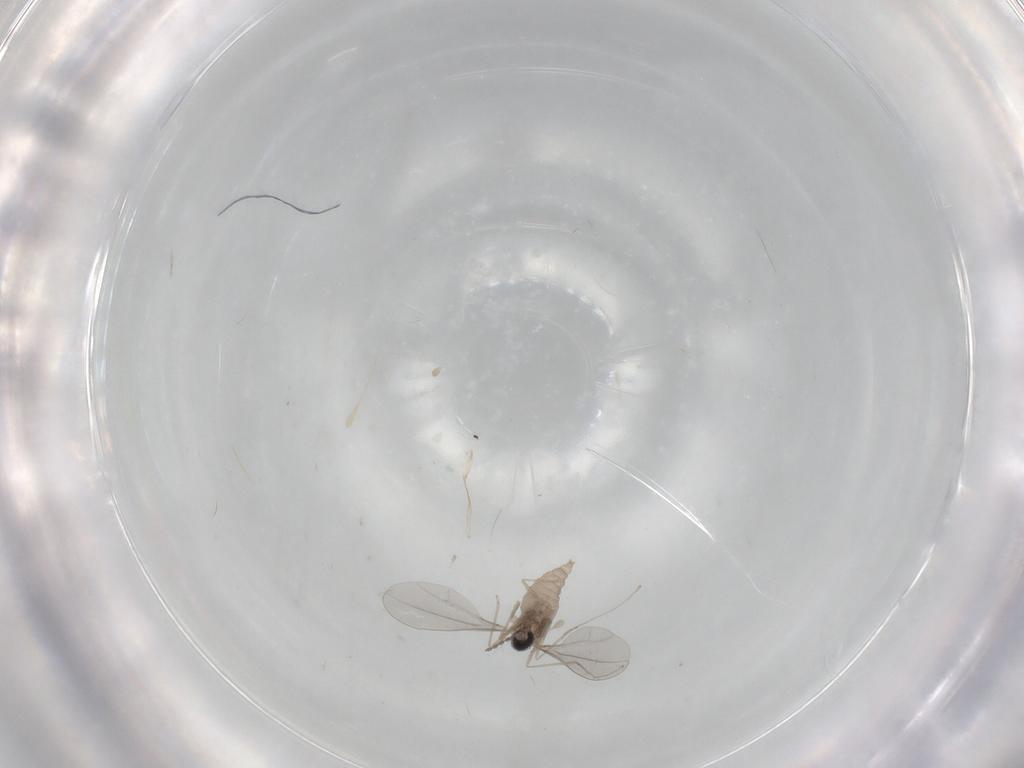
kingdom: Animalia
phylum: Arthropoda
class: Insecta
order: Diptera
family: Cecidomyiidae
